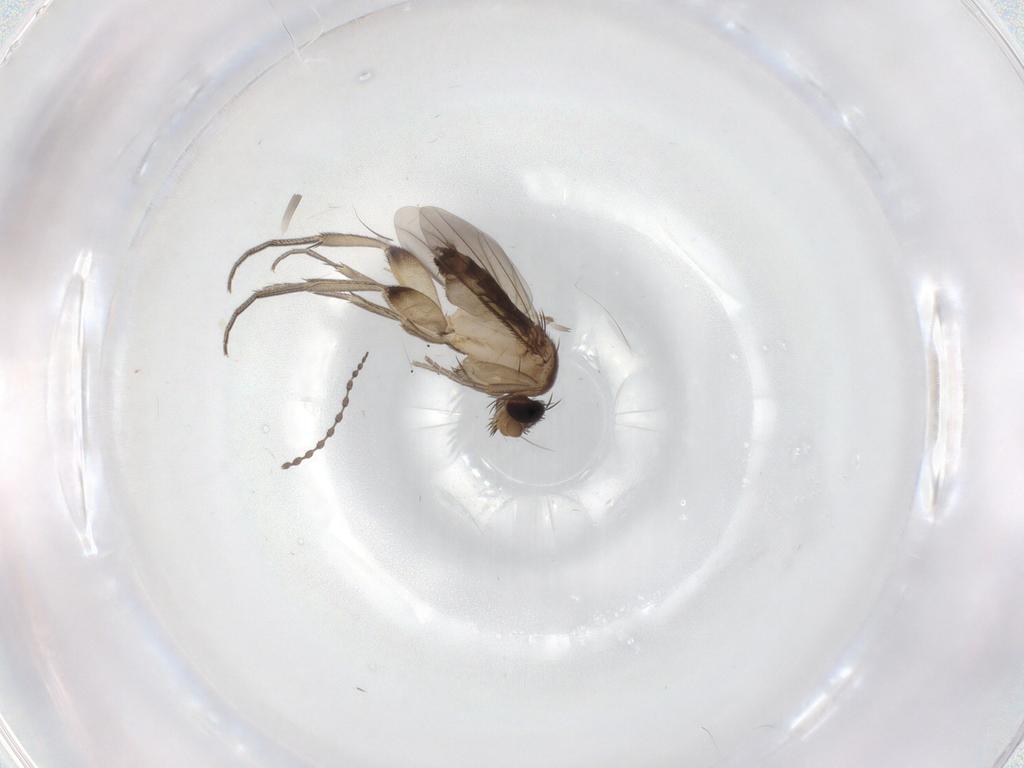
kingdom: Animalia
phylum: Arthropoda
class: Insecta
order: Diptera
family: Phoridae
